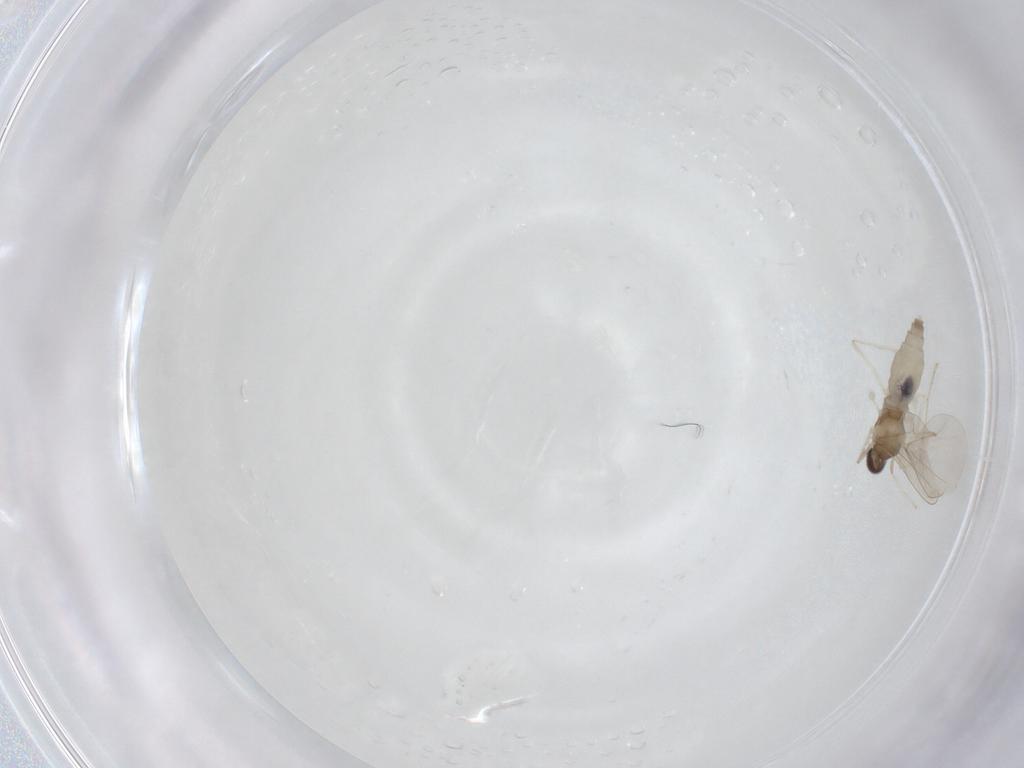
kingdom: Animalia
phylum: Arthropoda
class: Insecta
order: Diptera
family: Cecidomyiidae
